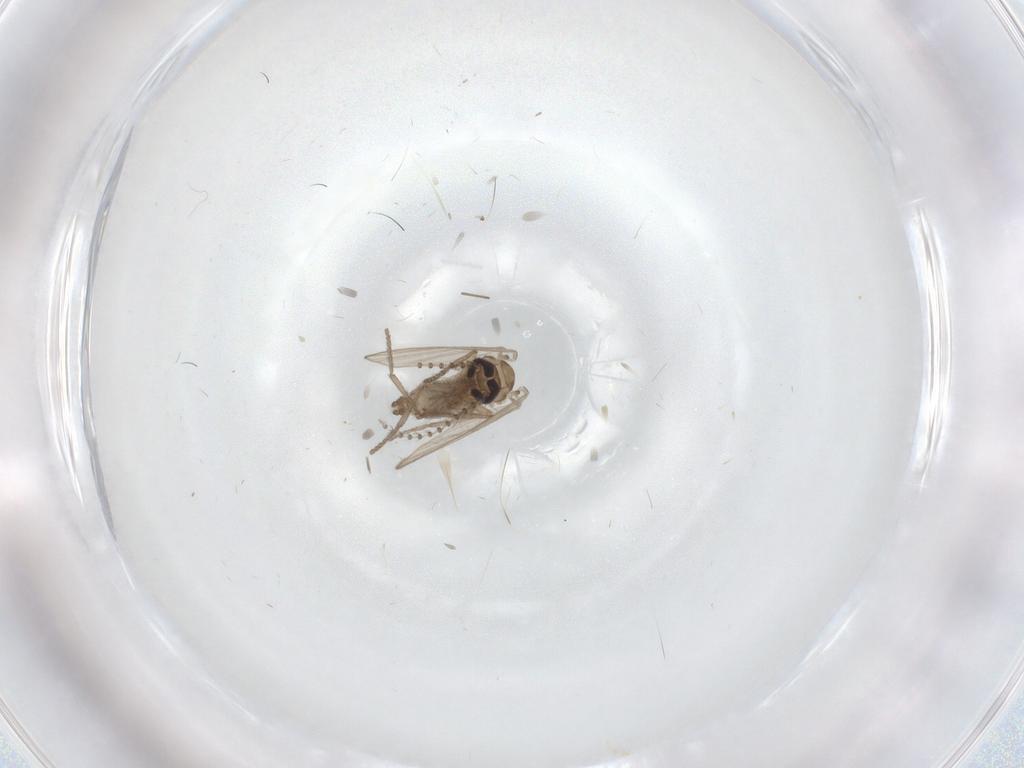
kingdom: Animalia
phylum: Arthropoda
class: Insecta
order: Diptera
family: Psychodidae
